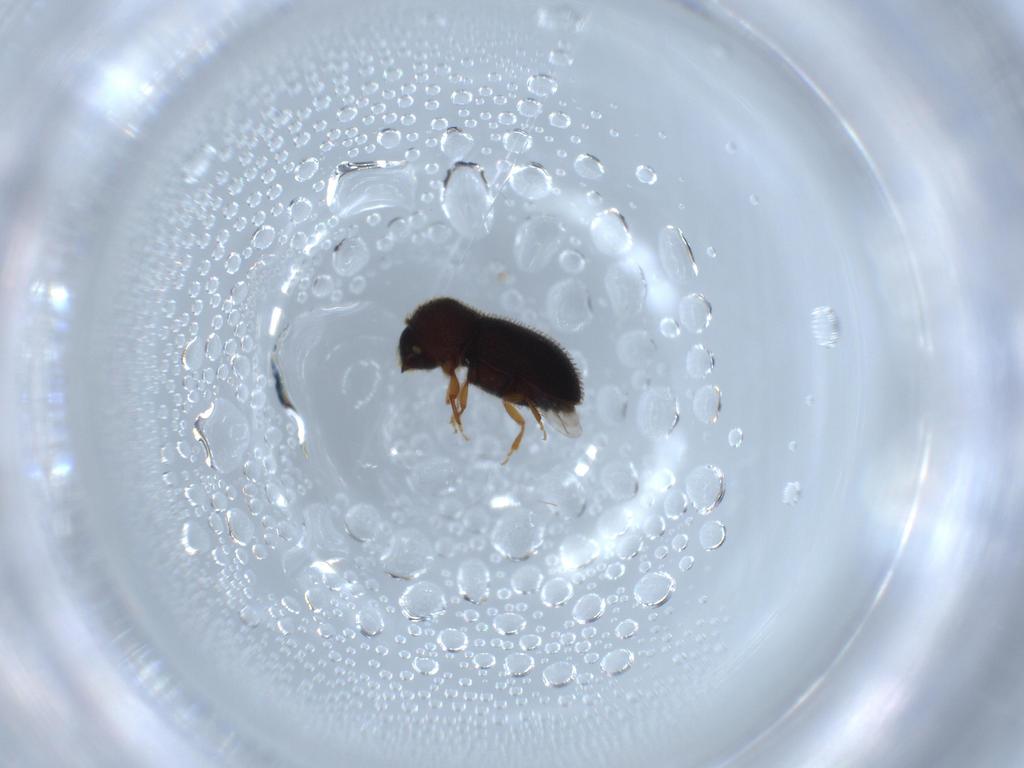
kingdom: Animalia
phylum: Arthropoda
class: Insecta
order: Coleoptera
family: Curculionidae
